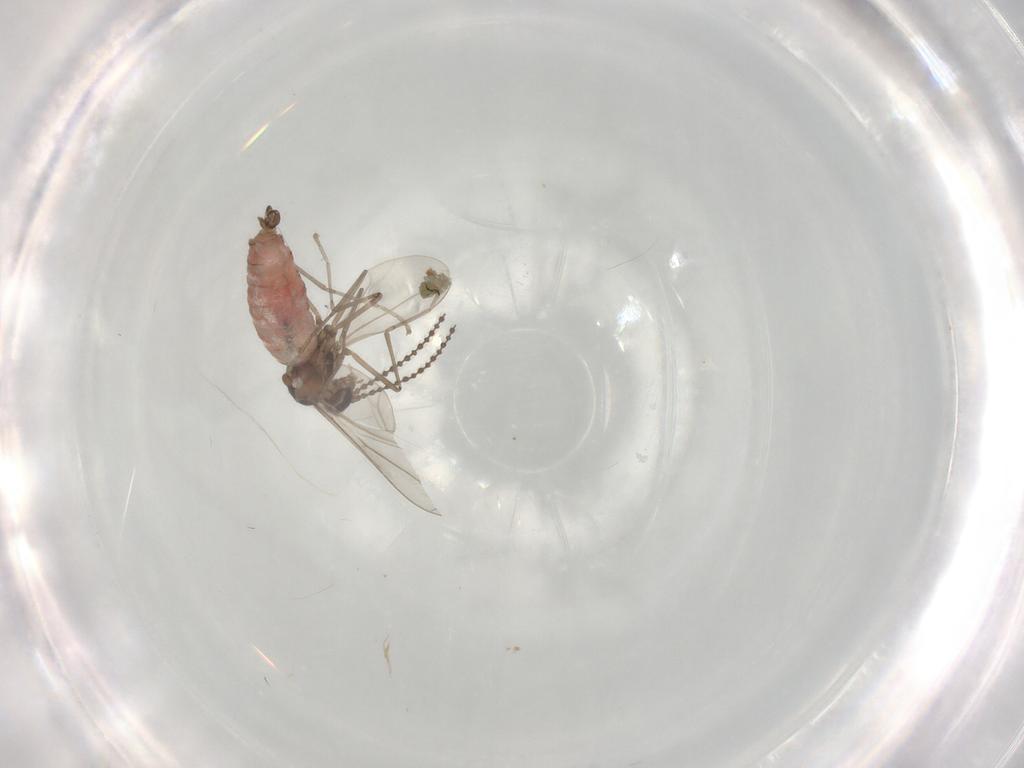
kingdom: Animalia
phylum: Arthropoda
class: Insecta
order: Diptera
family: Cecidomyiidae
